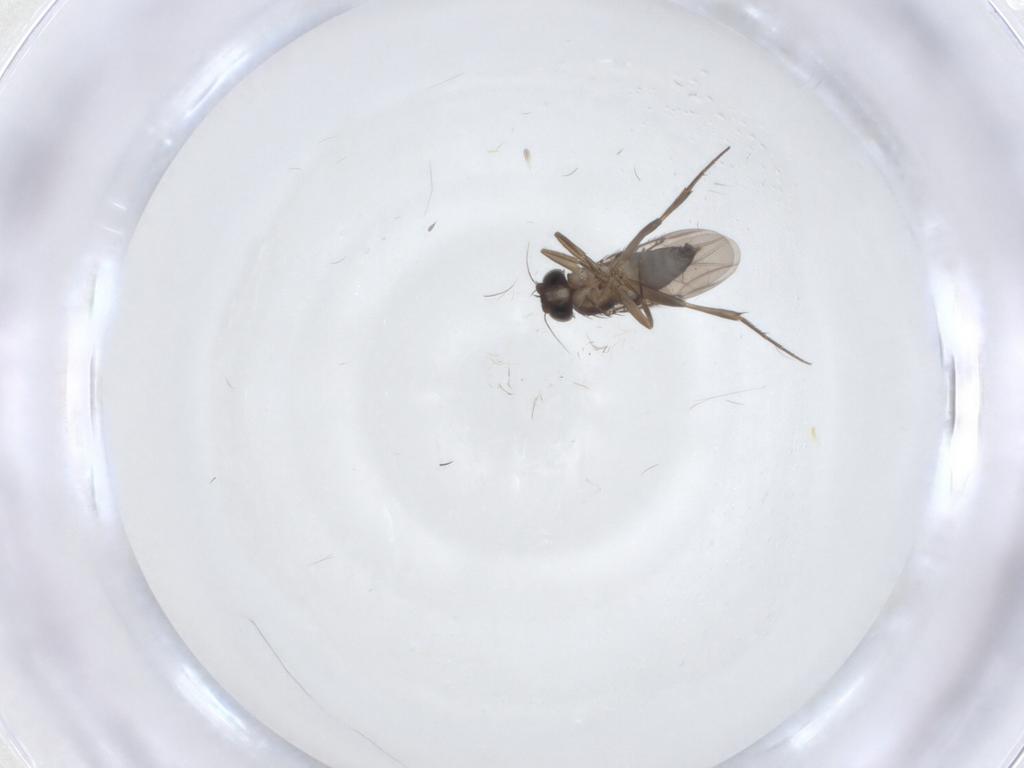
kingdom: Animalia
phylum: Arthropoda
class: Insecta
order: Diptera
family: Phoridae
